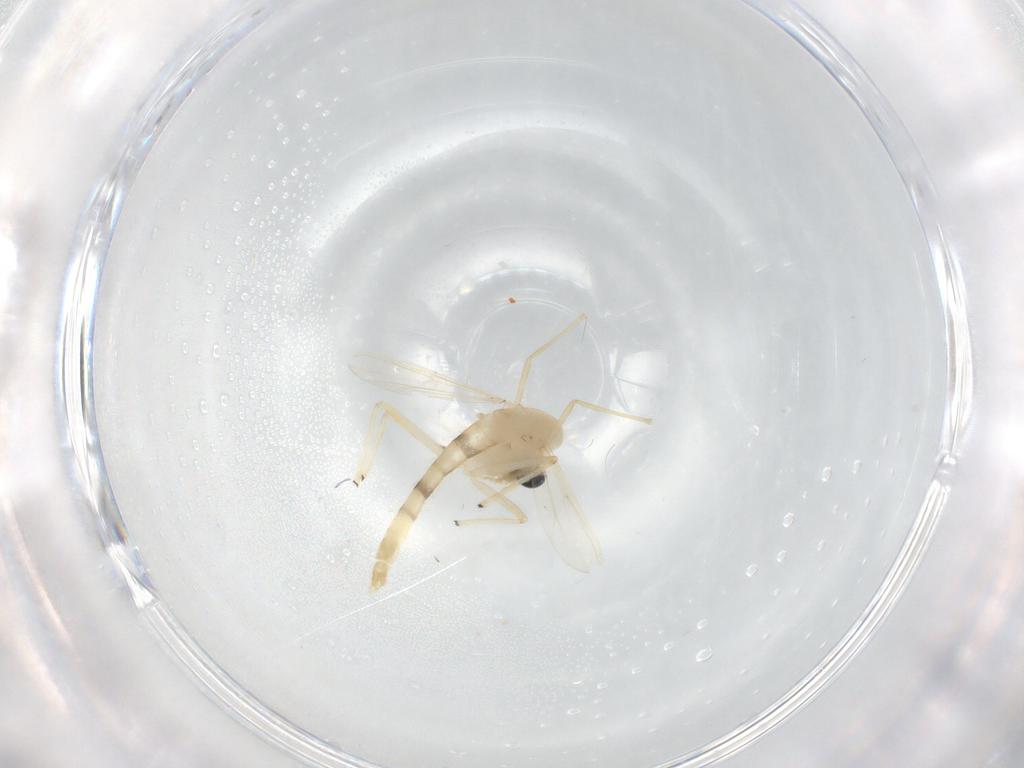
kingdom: Animalia
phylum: Arthropoda
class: Insecta
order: Diptera
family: Chironomidae
